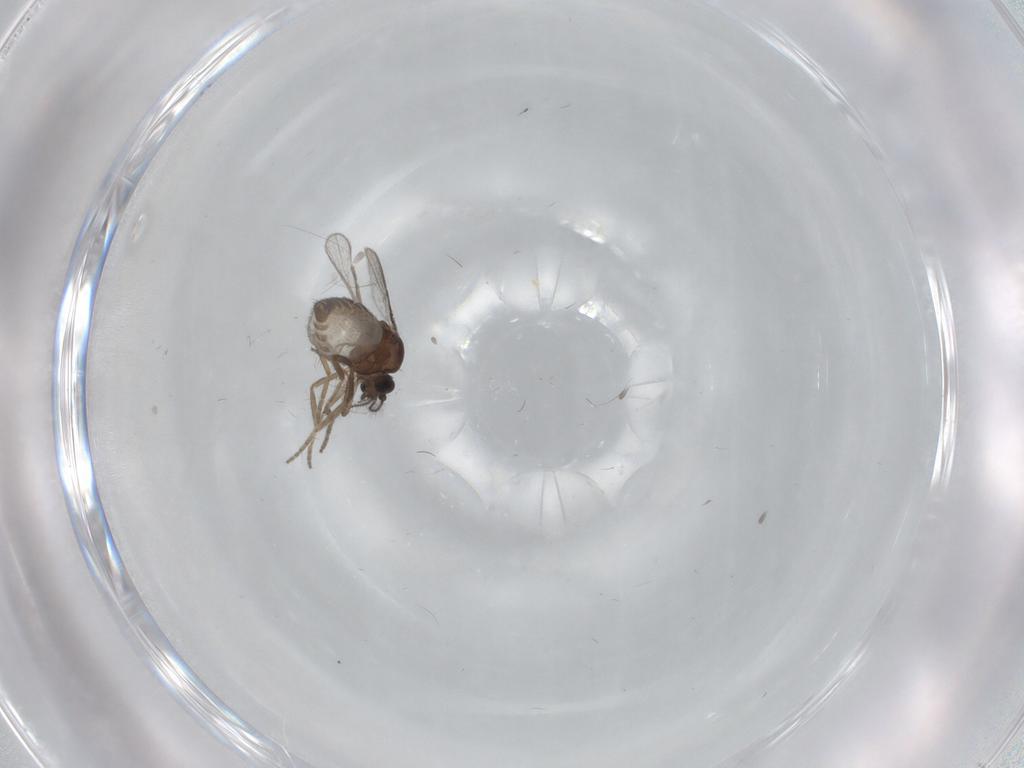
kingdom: Animalia
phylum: Arthropoda
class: Insecta
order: Diptera
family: Chironomidae
